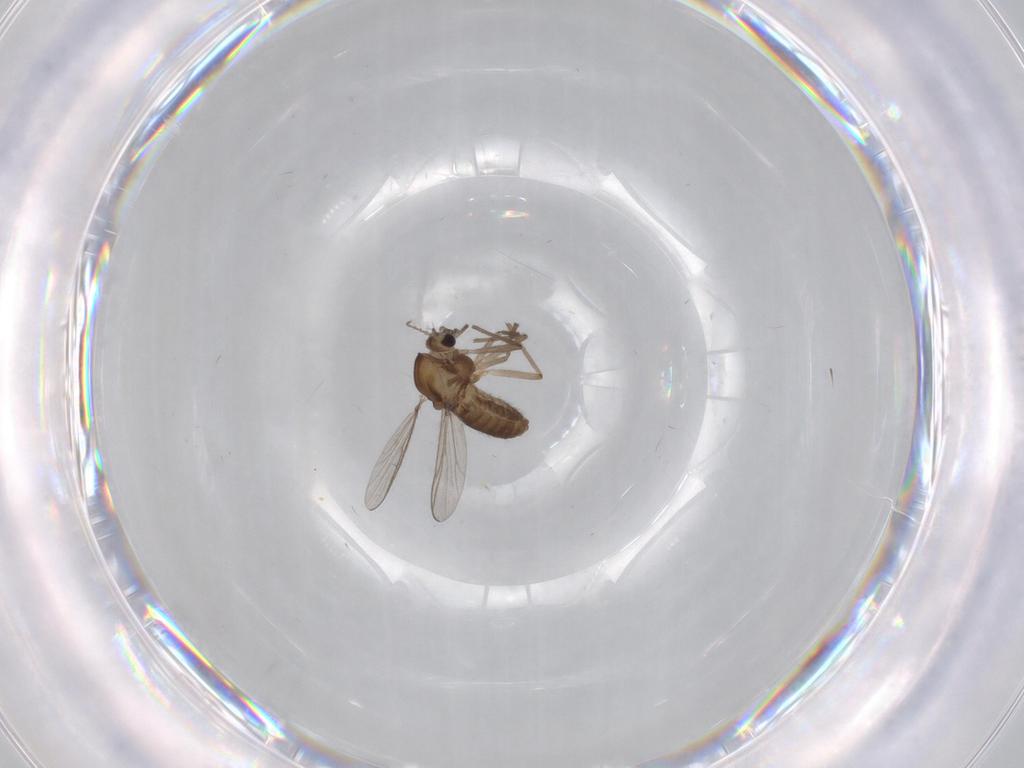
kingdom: Animalia
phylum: Arthropoda
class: Insecta
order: Diptera
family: Chironomidae
